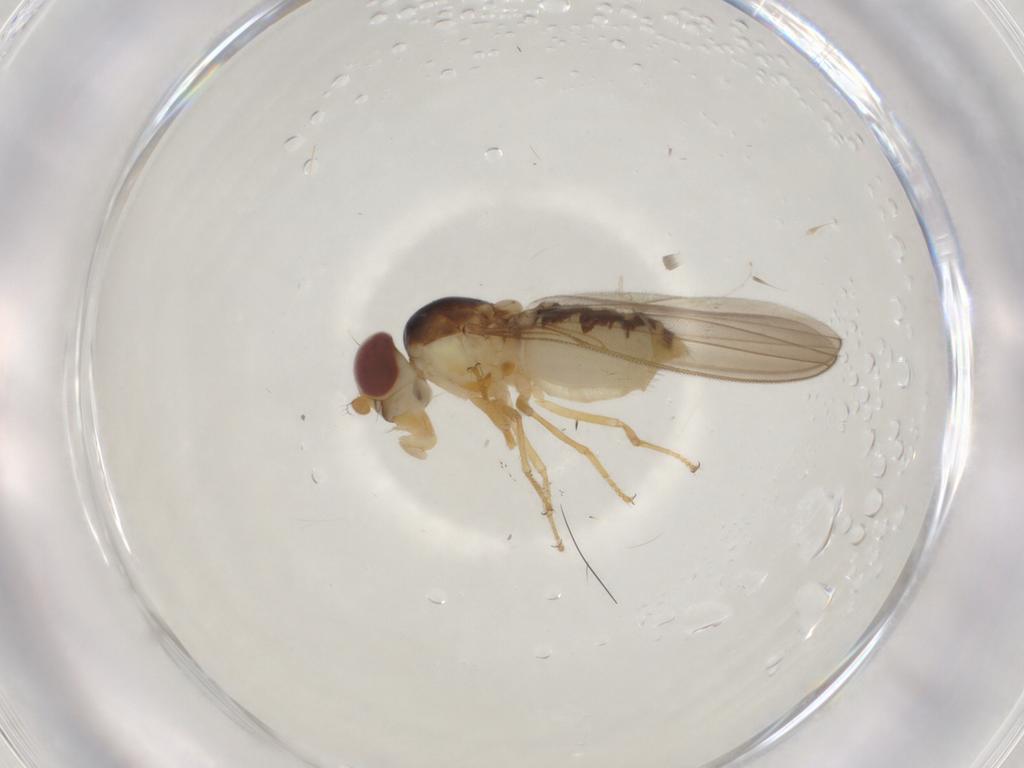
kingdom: Animalia
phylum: Arthropoda
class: Insecta
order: Diptera
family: Asteiidae
